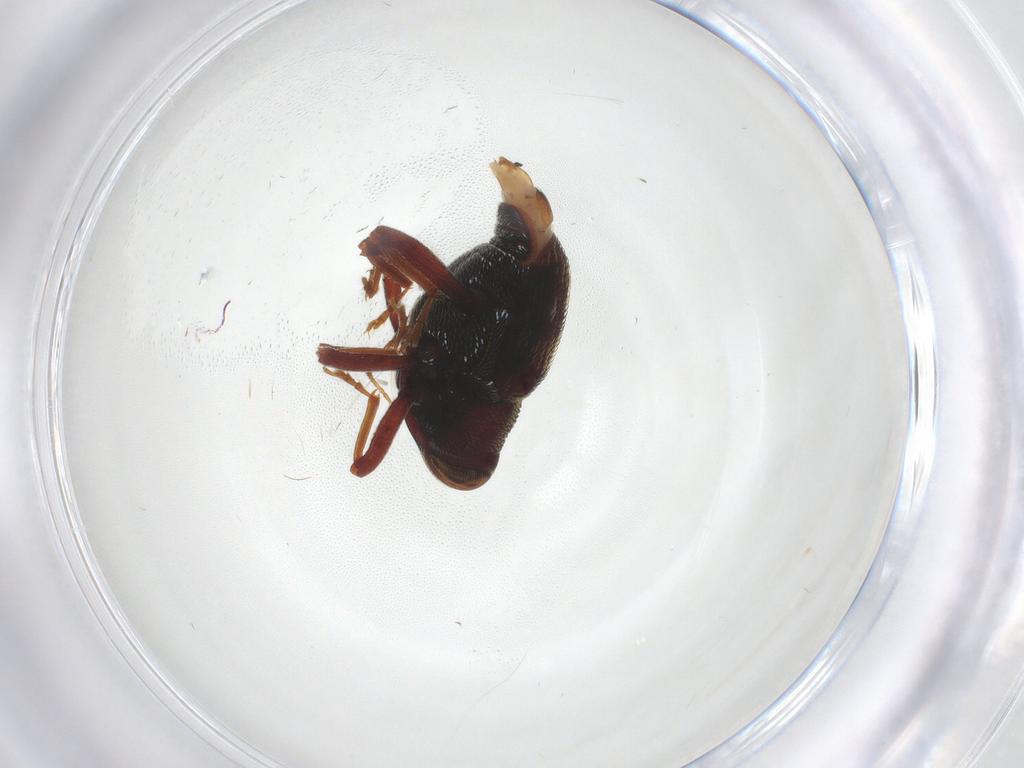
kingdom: Animalia
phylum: Arthropoda
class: Insecta
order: Coleoptera
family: Curculionidae
